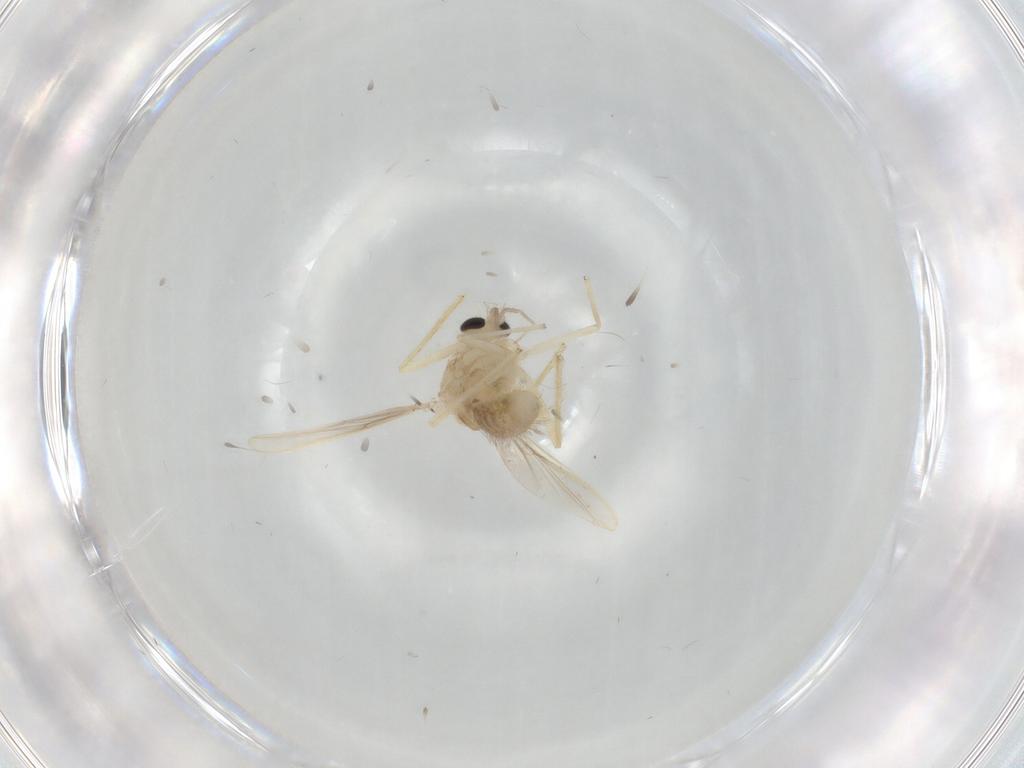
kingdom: Animalia
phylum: Arthropoda
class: Insecta
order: Diptera
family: Chironomidae
